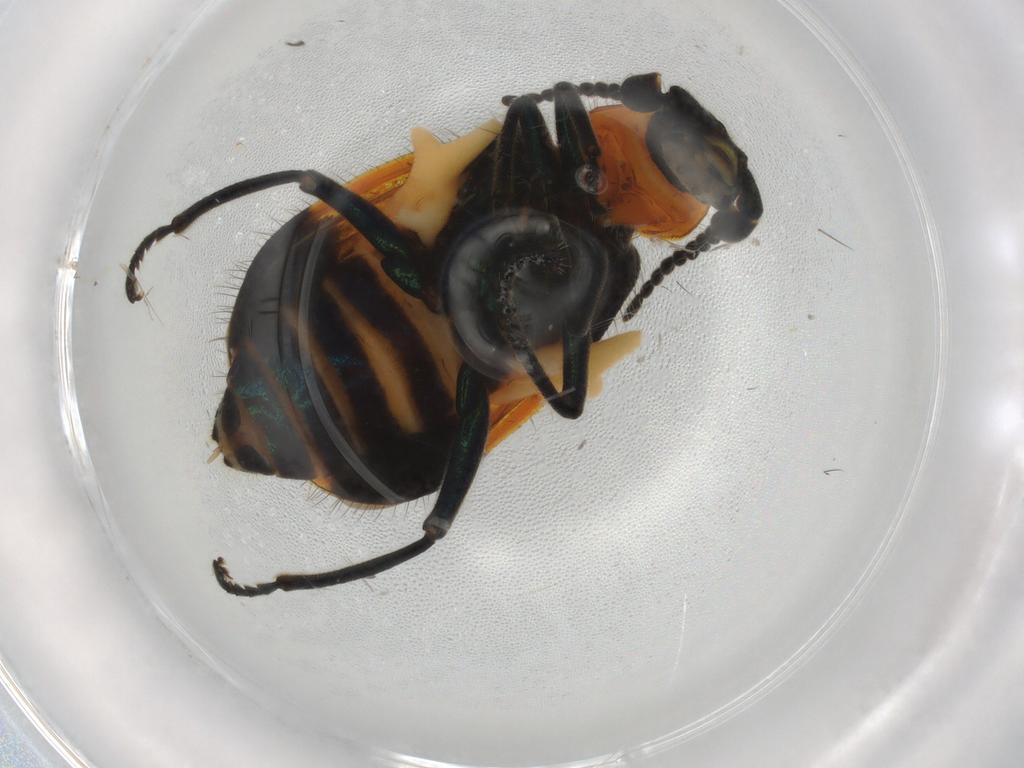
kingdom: Animalia
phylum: Arthropoda
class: Insecta
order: Coleoptera
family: Melyridae
